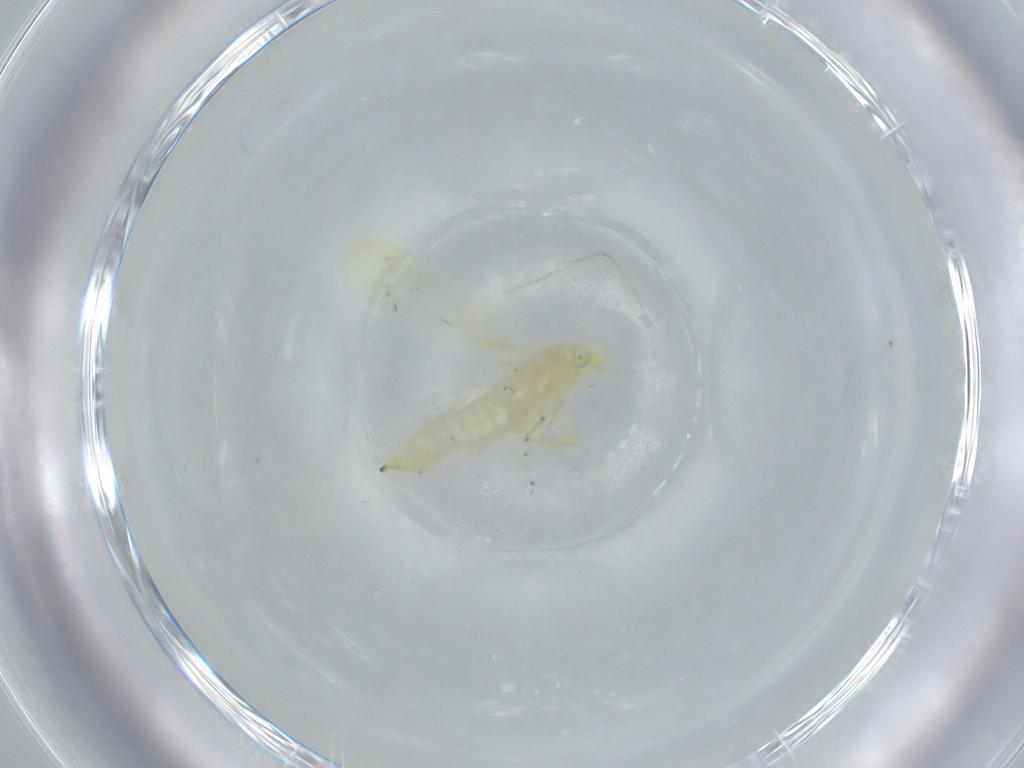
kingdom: Animalia
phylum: Arthropoda
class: Insecta
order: Hemiptera
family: Cicadellidae
